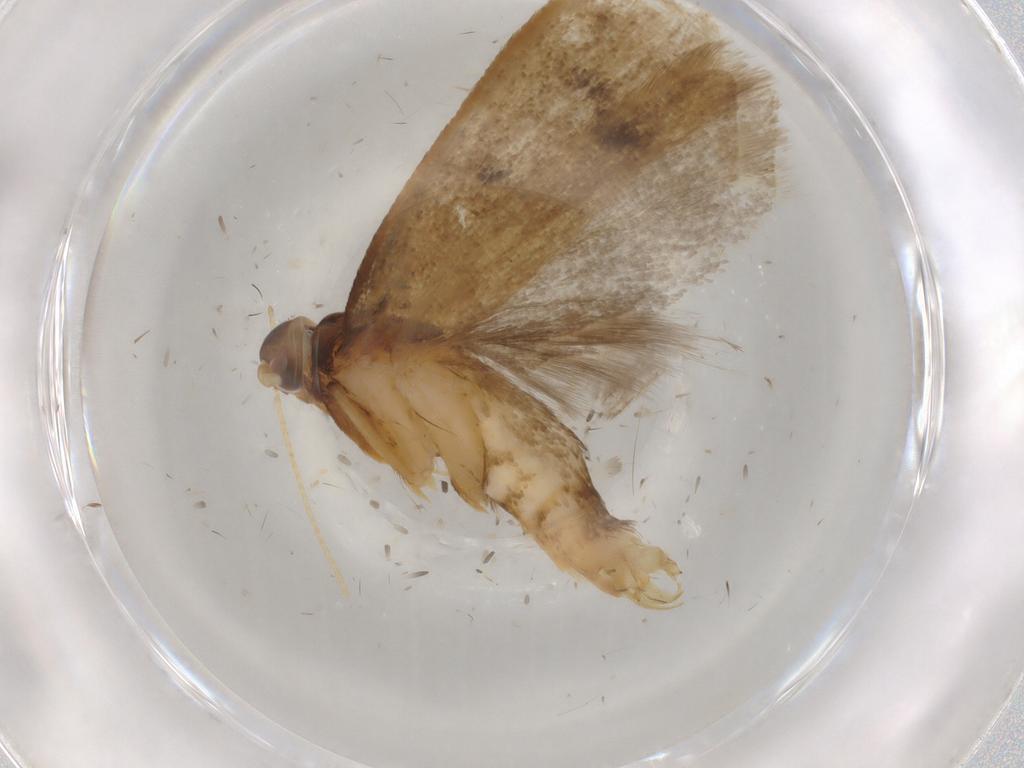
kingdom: Animalia
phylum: Arthropoda
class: Insecta
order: Lepidoptera
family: Lecithoceridae
